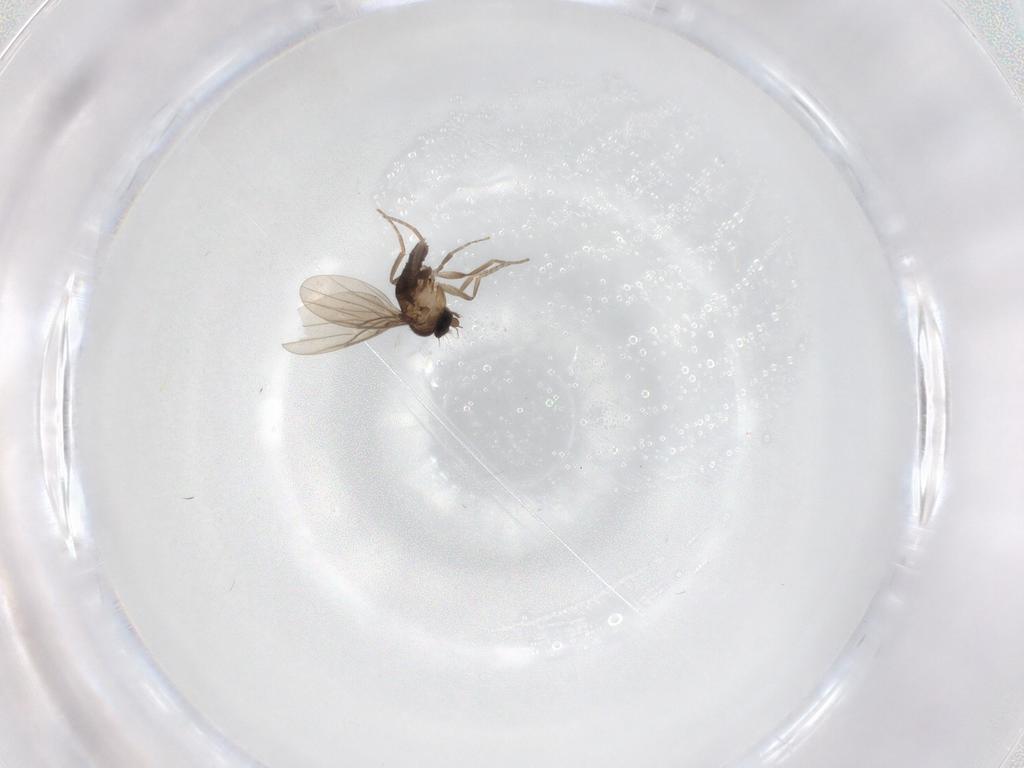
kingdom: Animalia
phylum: Arthropoda
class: Insecta
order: Diptera
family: Phoridae
